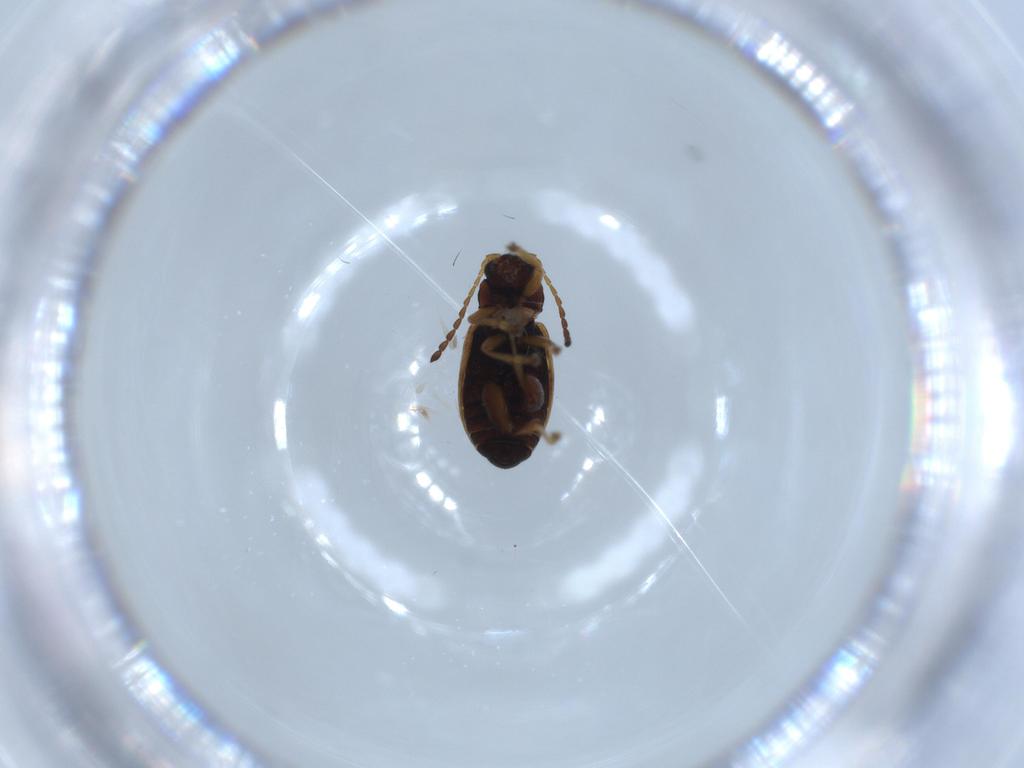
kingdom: Animalia
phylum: Arthropoda
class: Insecta
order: Coleoptera
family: Chrysomelidae
